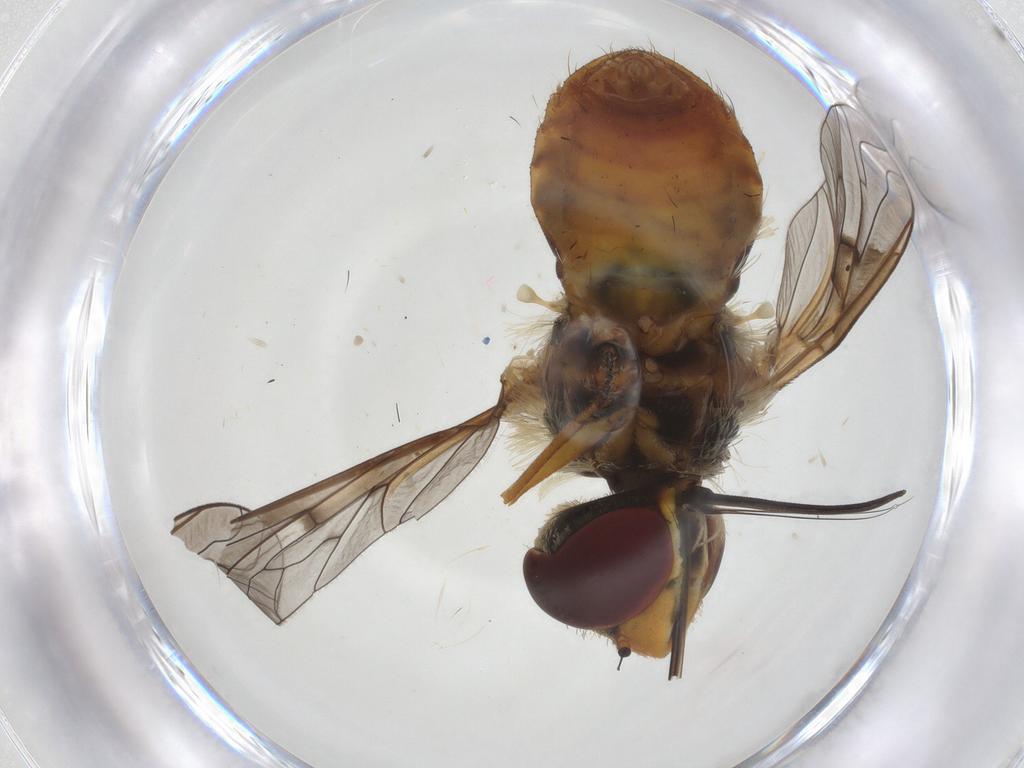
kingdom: Animalia
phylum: Arthropoda
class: Insecta
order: Diptera
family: Bombyliidae
